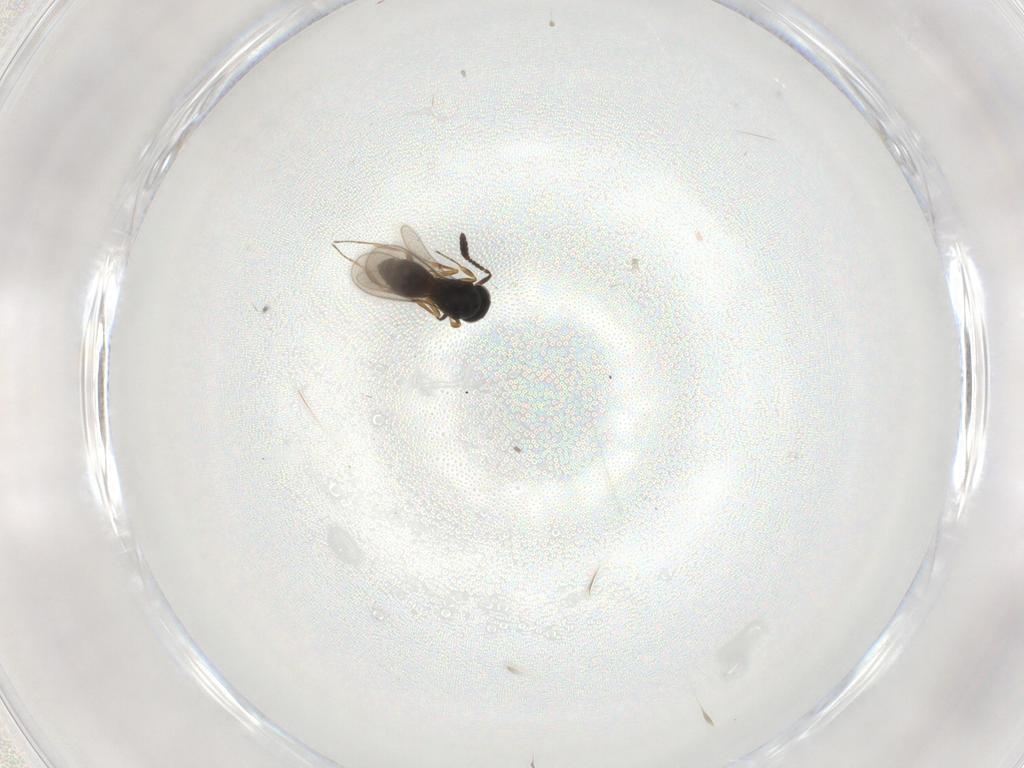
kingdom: Animalia
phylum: Arthropoda
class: Insecta
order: Hymenoptera
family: Scelionidae
